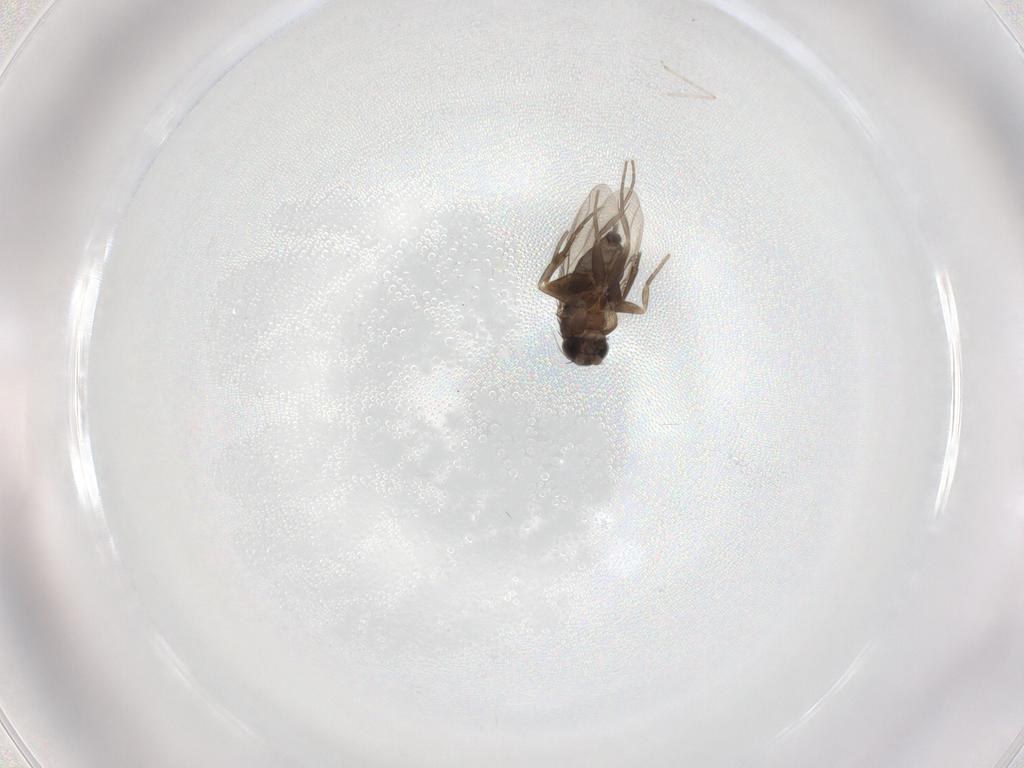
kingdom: Animalia
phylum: Arthropoda
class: Insecta
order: Diptera
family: Phoridae
